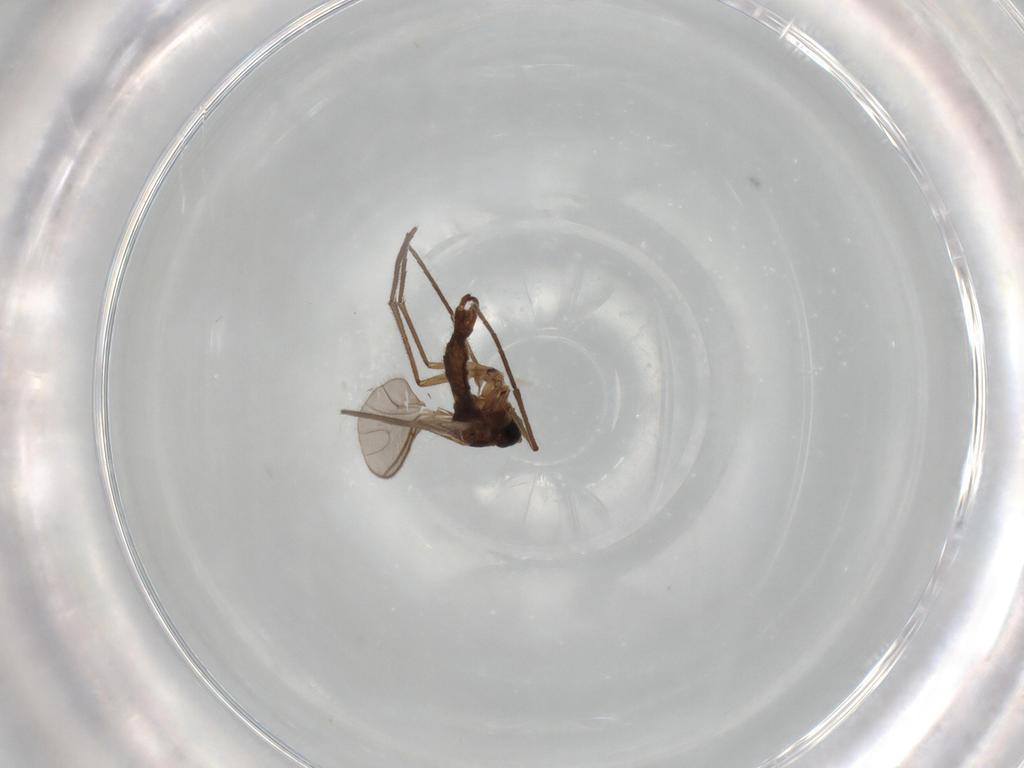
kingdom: Animalia
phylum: Arthropoda
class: Insecta
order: Diptera
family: Sciaridae
